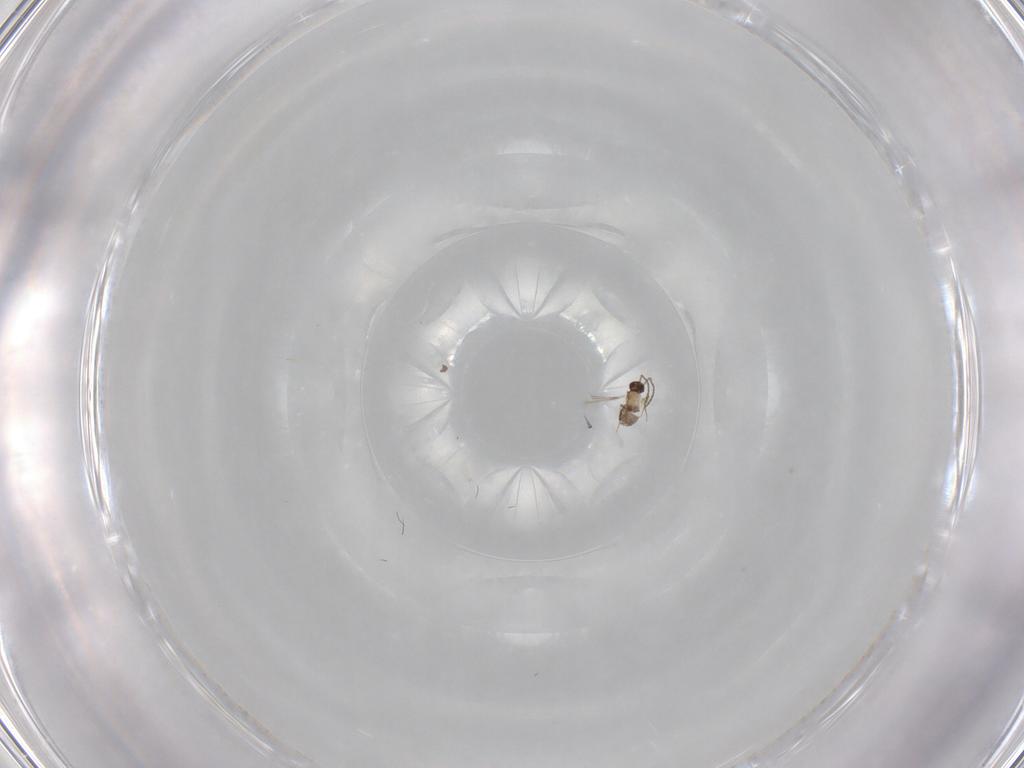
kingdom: Animalia
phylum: Arthropoda
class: Insecta
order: Hymenoptera
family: Mymaridae
